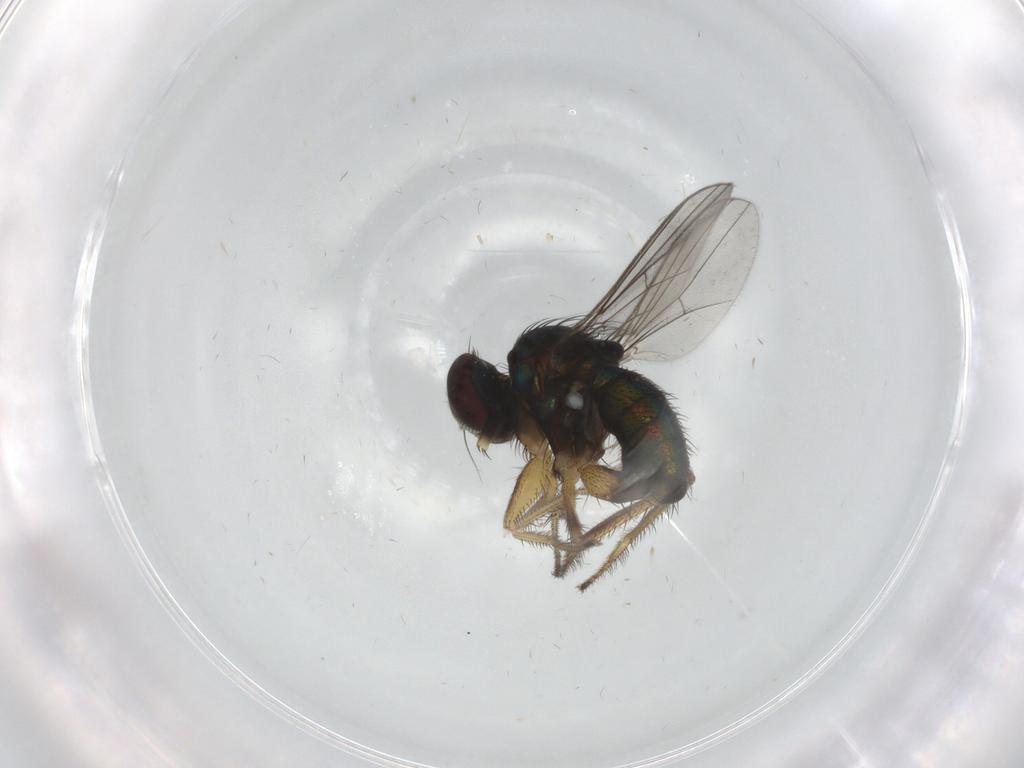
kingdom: Animalia
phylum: Arthropoda
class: Insecta
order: Diptera
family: Dolichopodidae
